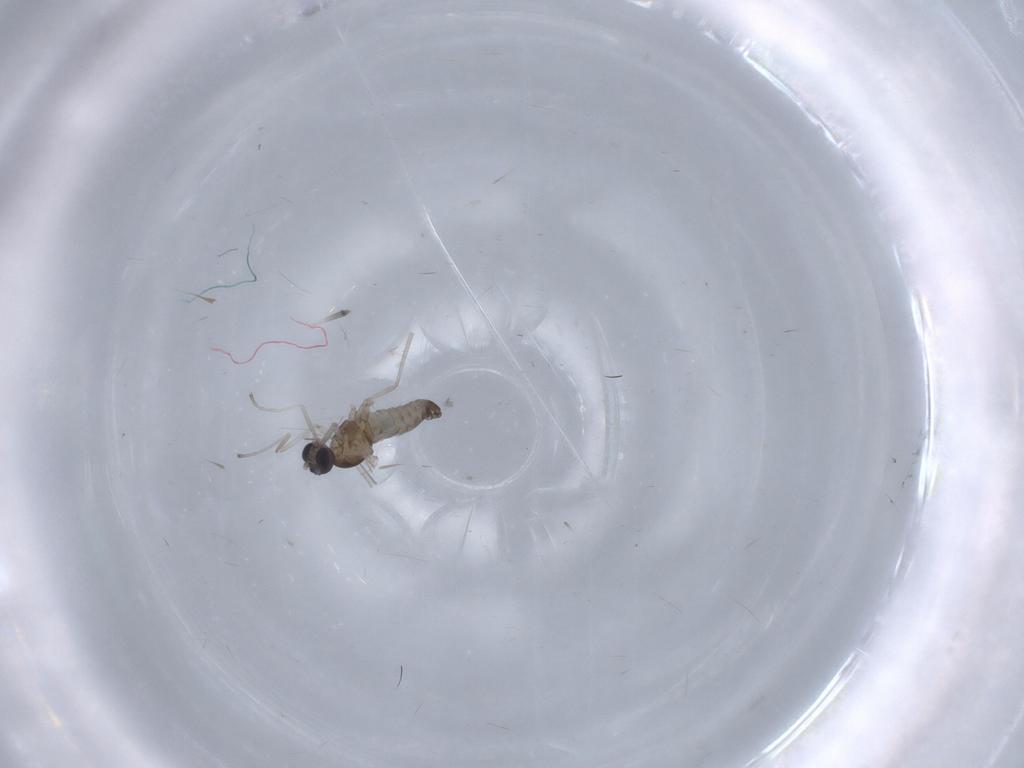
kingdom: Animalia
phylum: Arthropoda
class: Insecta
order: Diptera
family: Cecidomyiidae
